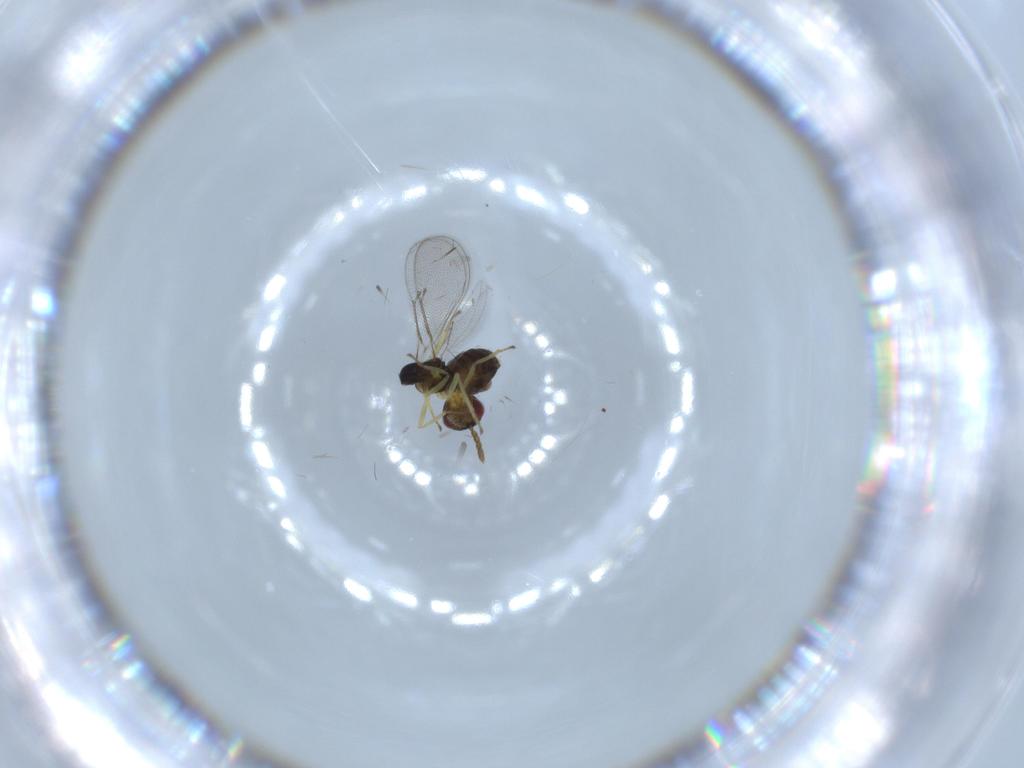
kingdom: Animalia
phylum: Arthropoda
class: Insecta
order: Hymenoptera
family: Eulophidae
